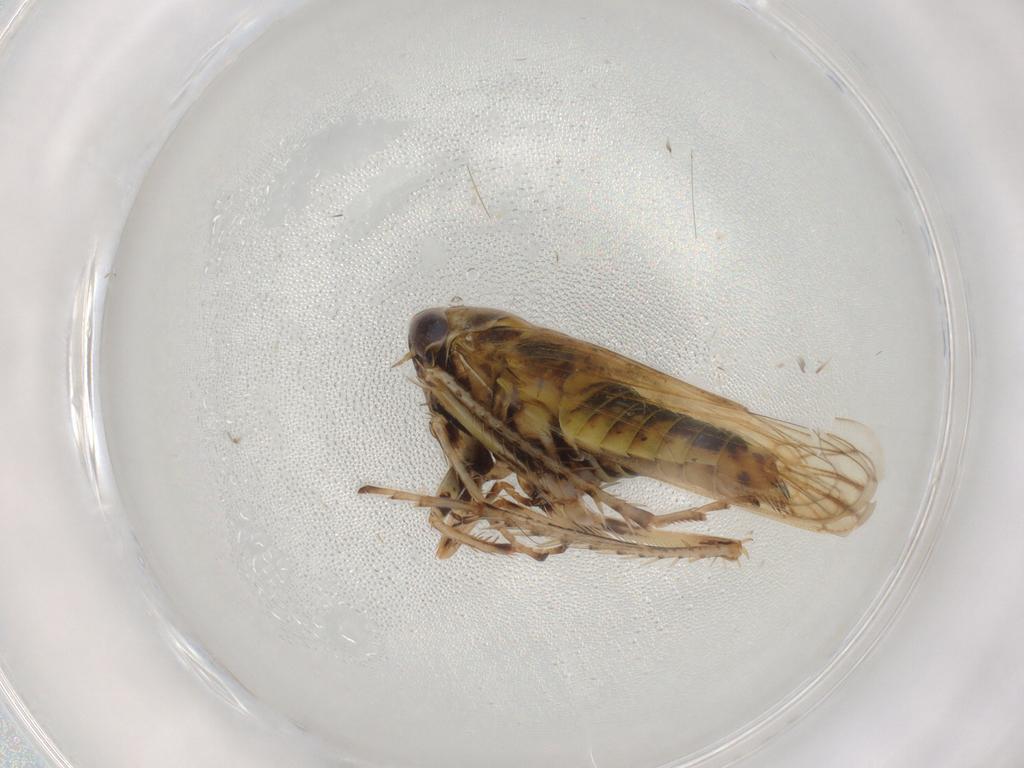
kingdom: Animalia
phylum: Arthropoda
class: Insecta
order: Hemiptera
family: Cicadellidae
